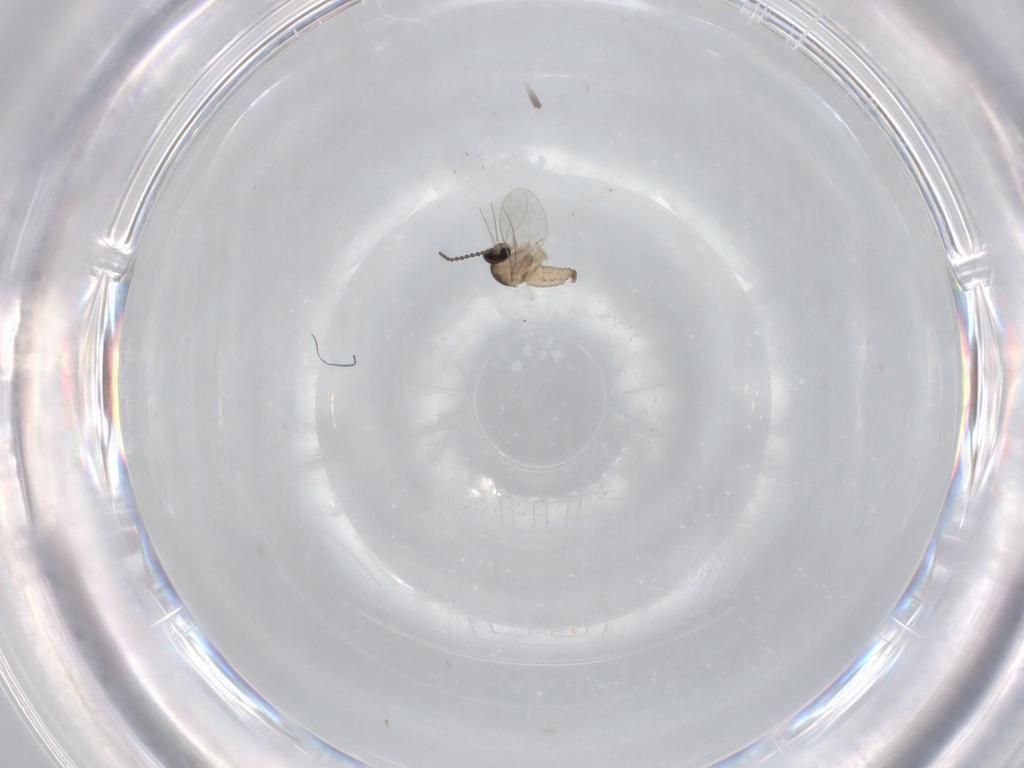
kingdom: Animalia
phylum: Arthropoda
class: Insecta
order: Diptera
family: Cecidomyiidae
